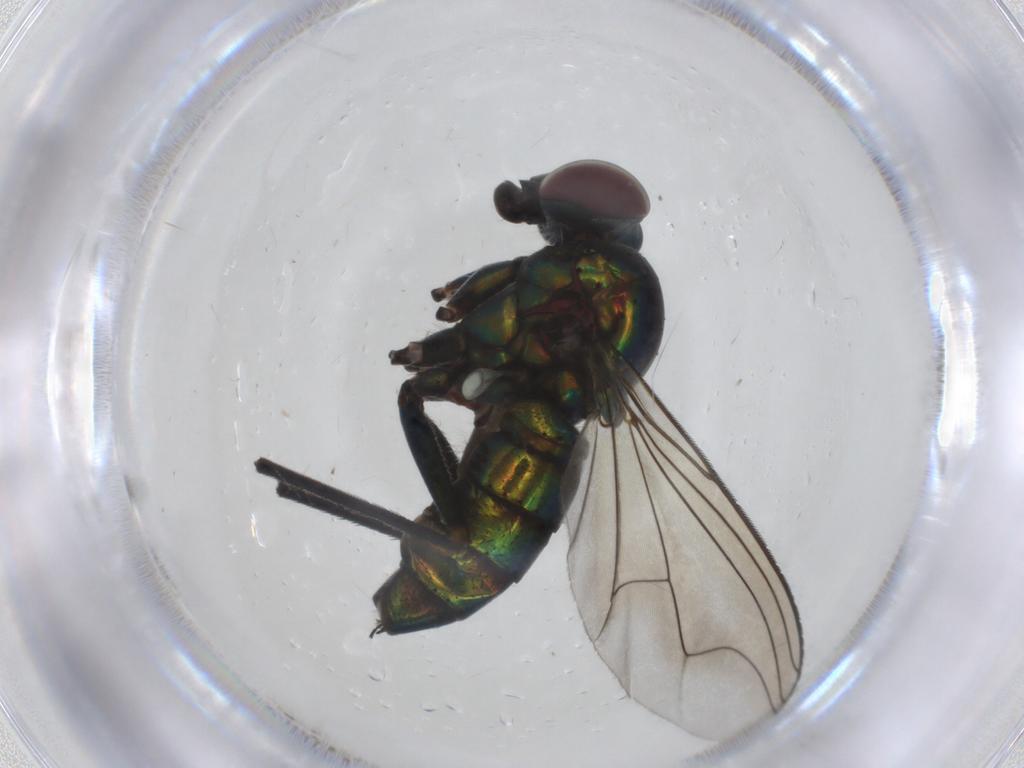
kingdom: Animalia
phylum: Arthropoda
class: Insecta
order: Diptera
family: Dolichopodidae
